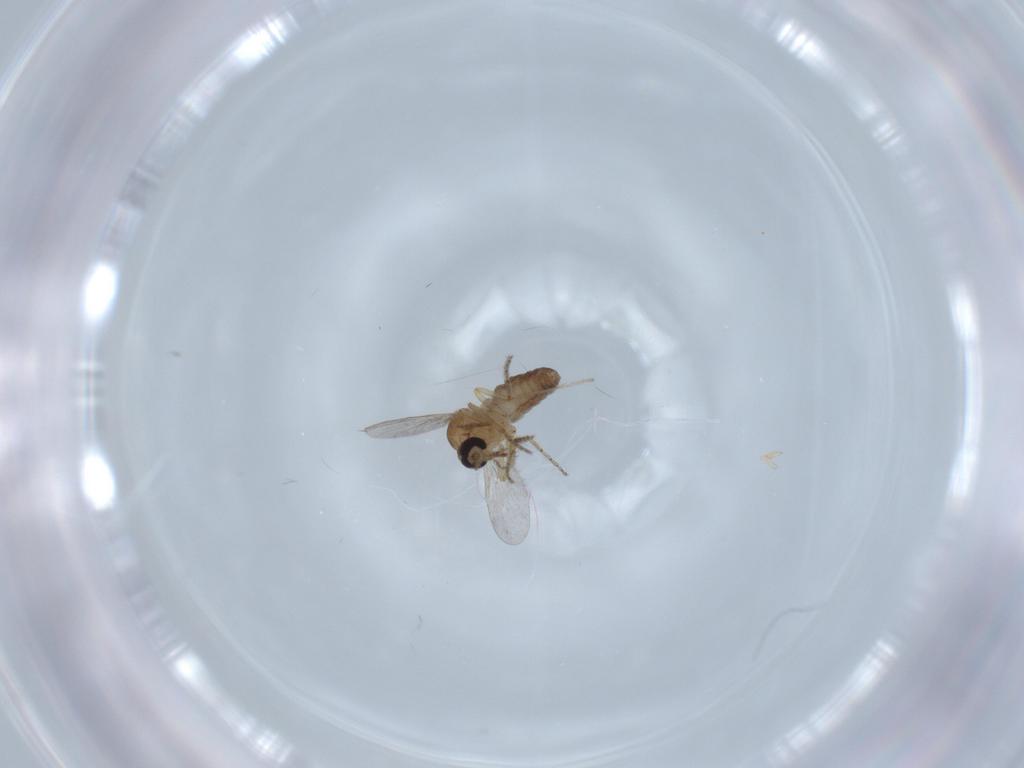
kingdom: Animalia
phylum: Arthropoda
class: Insecta
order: Diptera
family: Ceratopogonidae
